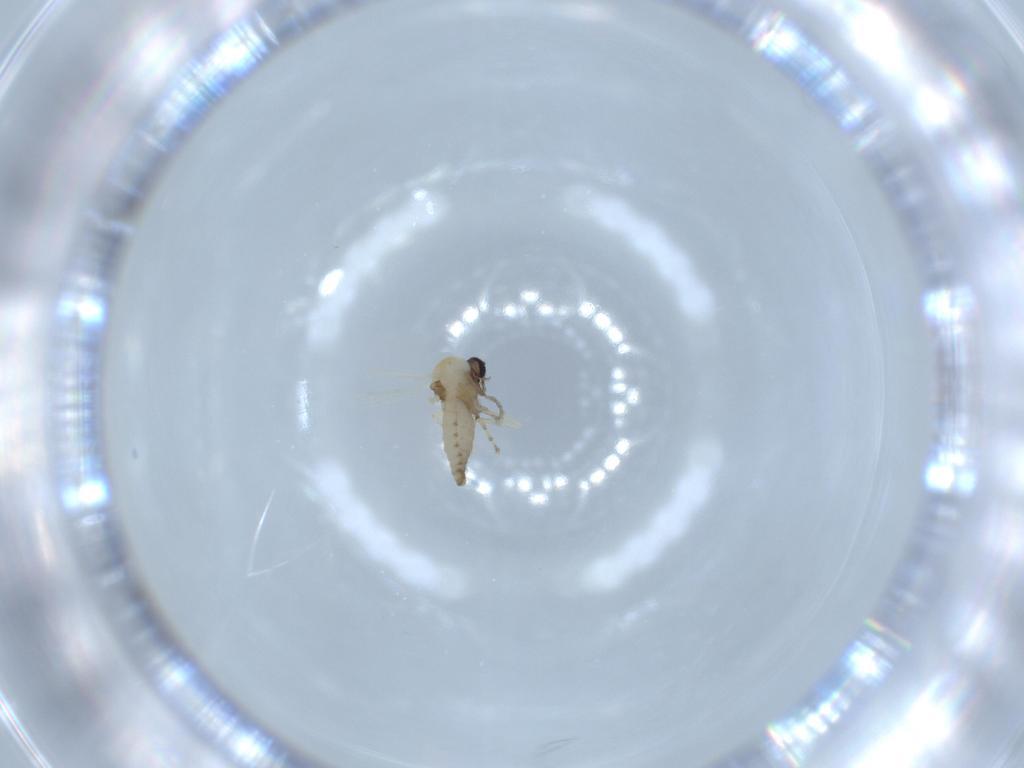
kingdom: Animalia
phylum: Arthropoda
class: Insecta
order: Diptera
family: Ceratopogonidae
